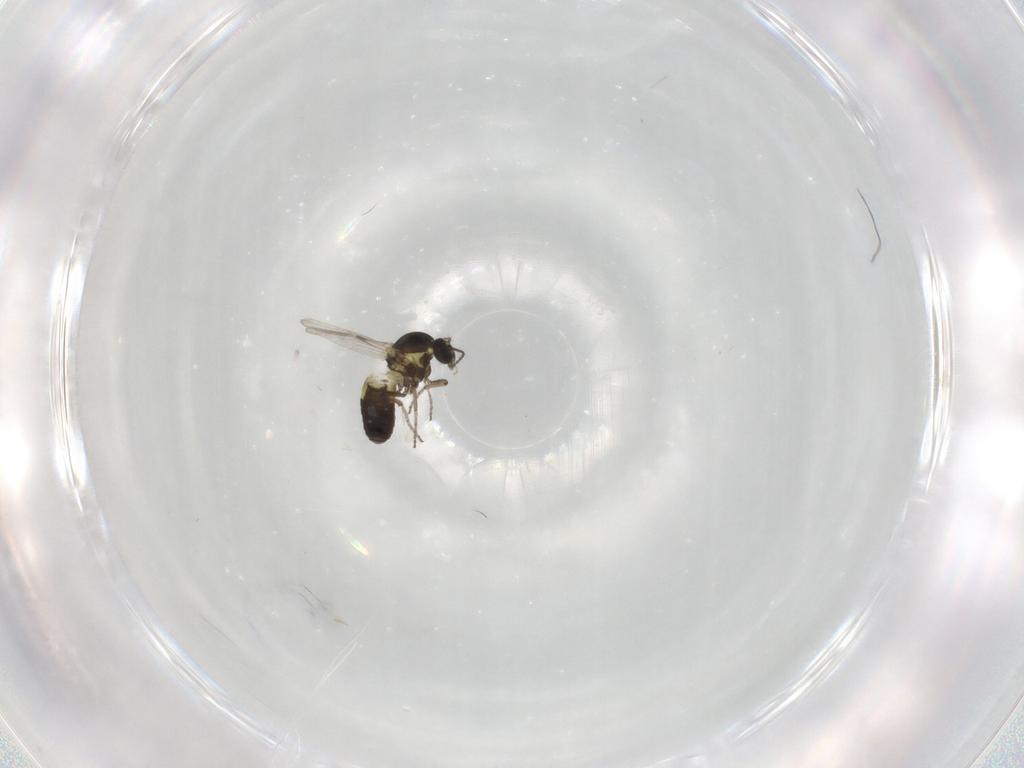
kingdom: Animalia
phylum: Arthropoda
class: Insecta
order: Diptera
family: Ceratopogonidae
